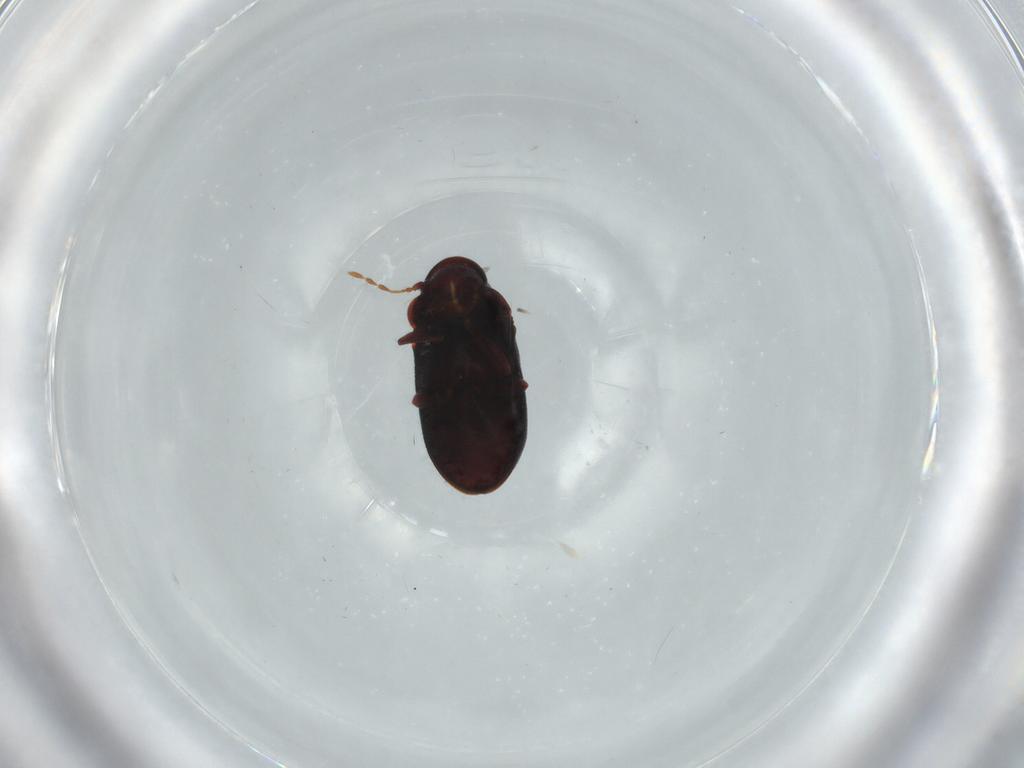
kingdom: Animalia
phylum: Arthropoda
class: Insecta
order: Coleoptera
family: Ptinidae
